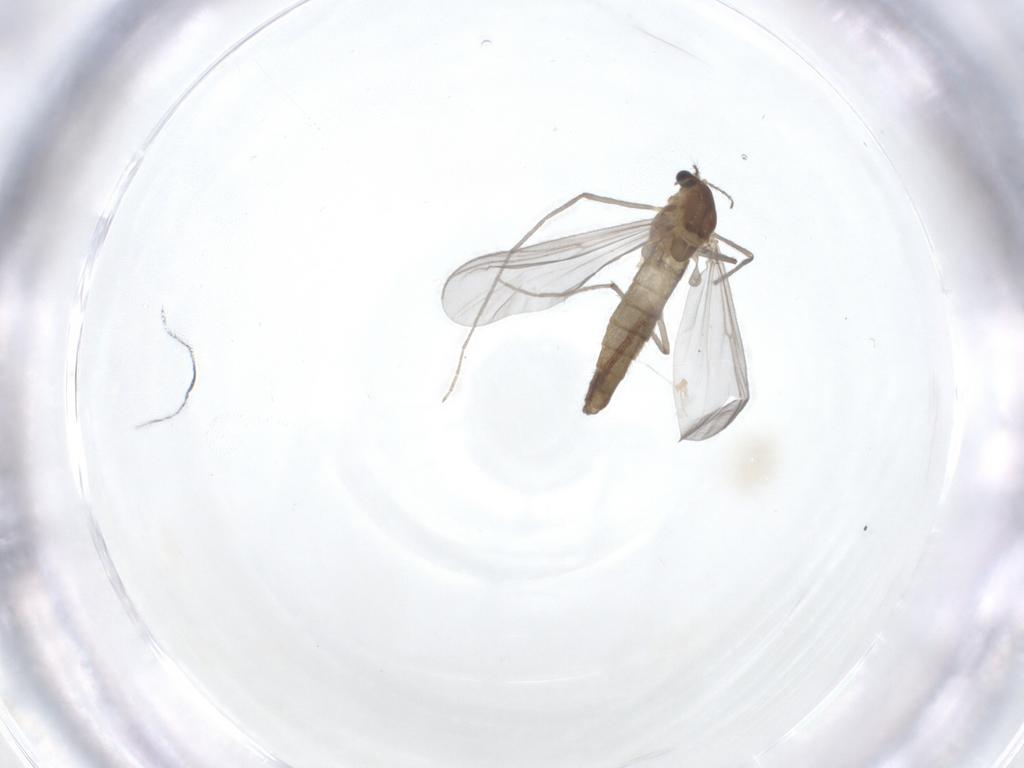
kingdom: Animalia
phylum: Arthropoda
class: Insecta
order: Diptera
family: Chironomidae
